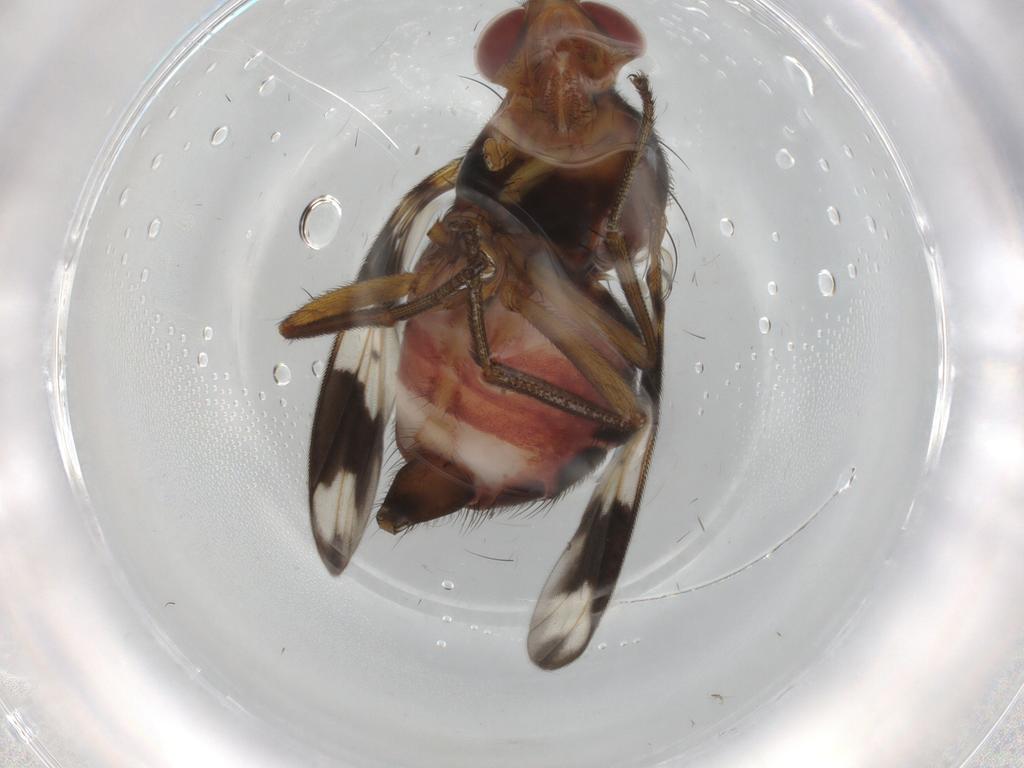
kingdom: Animalia
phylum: Arthropoda
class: Insecta
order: Diptera
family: Richardiidae
